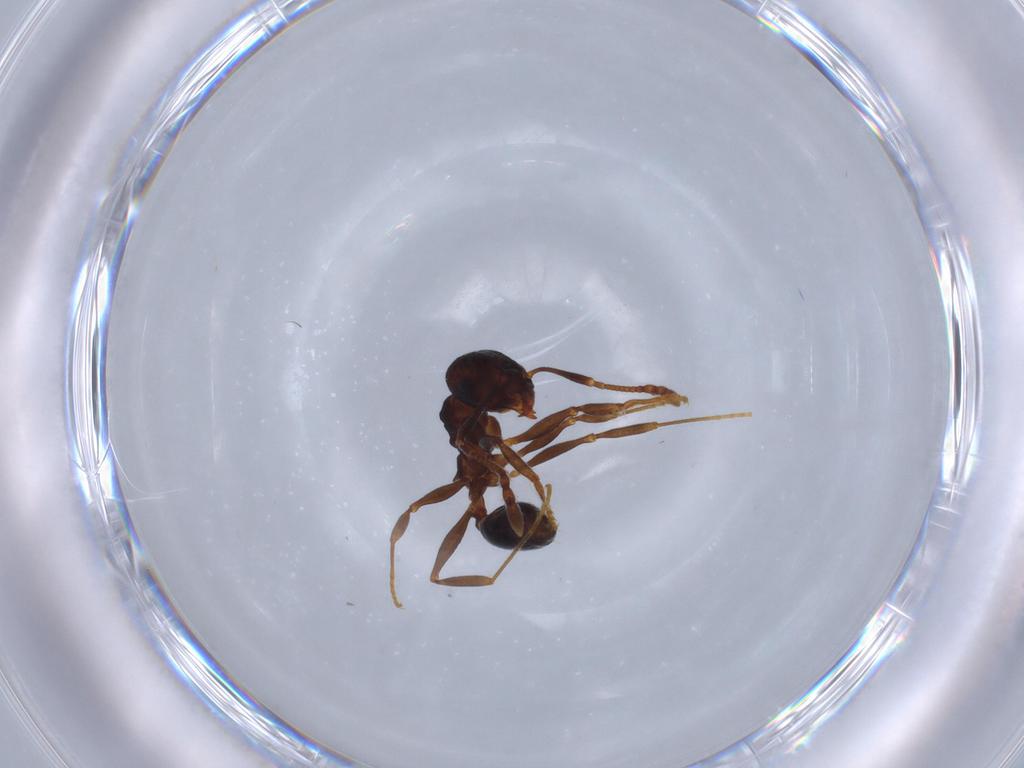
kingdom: Animalia
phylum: Arthropoda
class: Insecta
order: Hymenoptera
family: Formicidae
